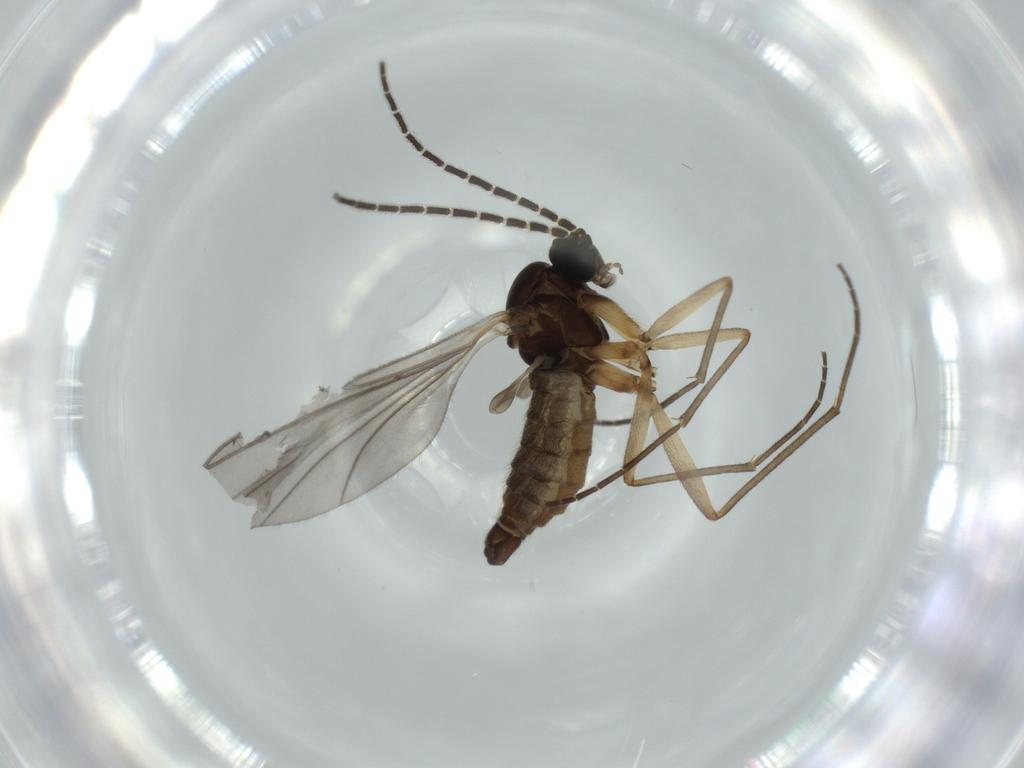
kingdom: Animalia
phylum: Arthropoda
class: Insecta
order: Diptera
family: Sciaridae
